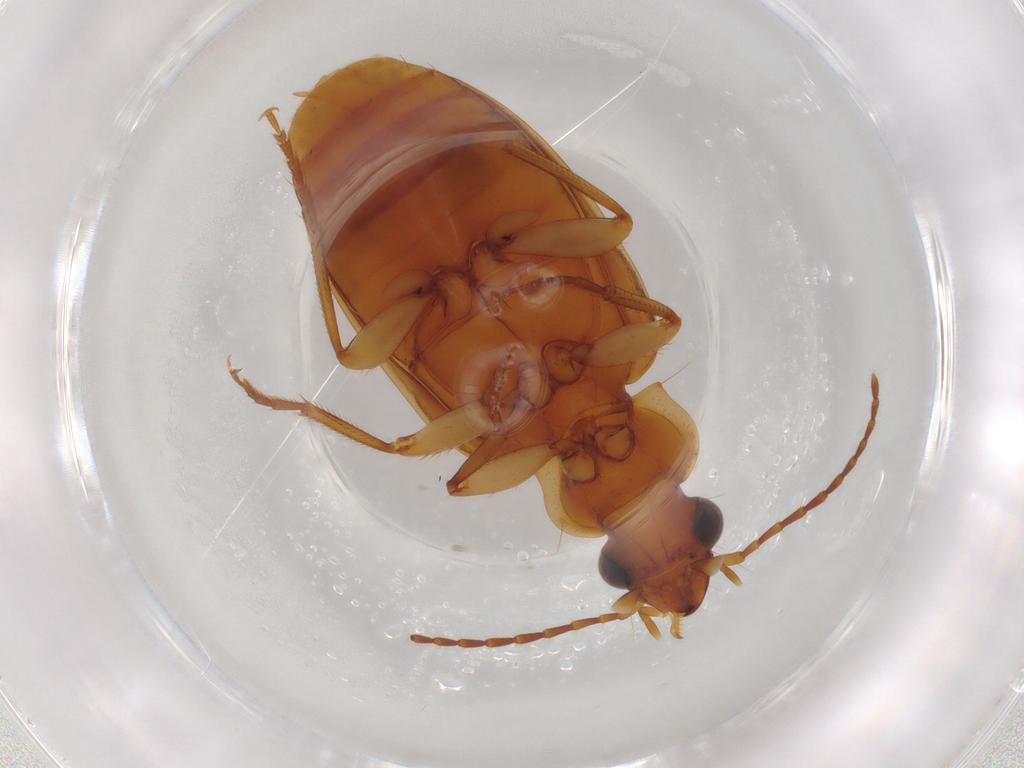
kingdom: Animalia
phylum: Arthropoda
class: Insecta
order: Coleoptera
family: Carabidae
